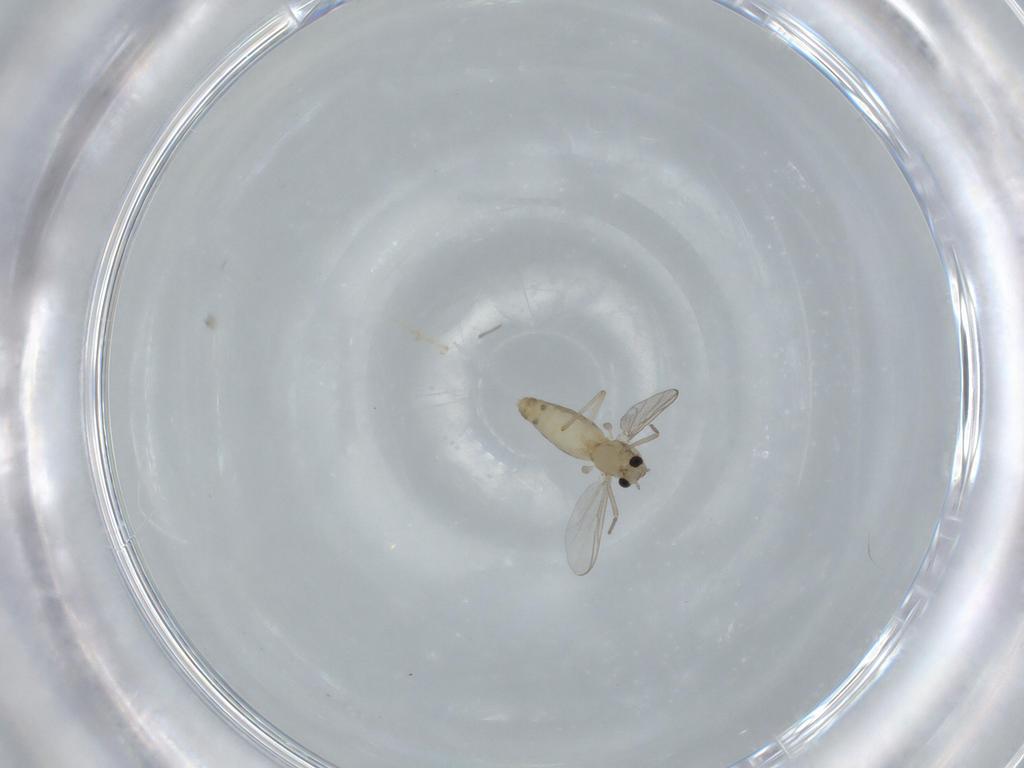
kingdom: Animalia
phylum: Arthropoda
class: Insecta
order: Diptera
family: Chironomidae
